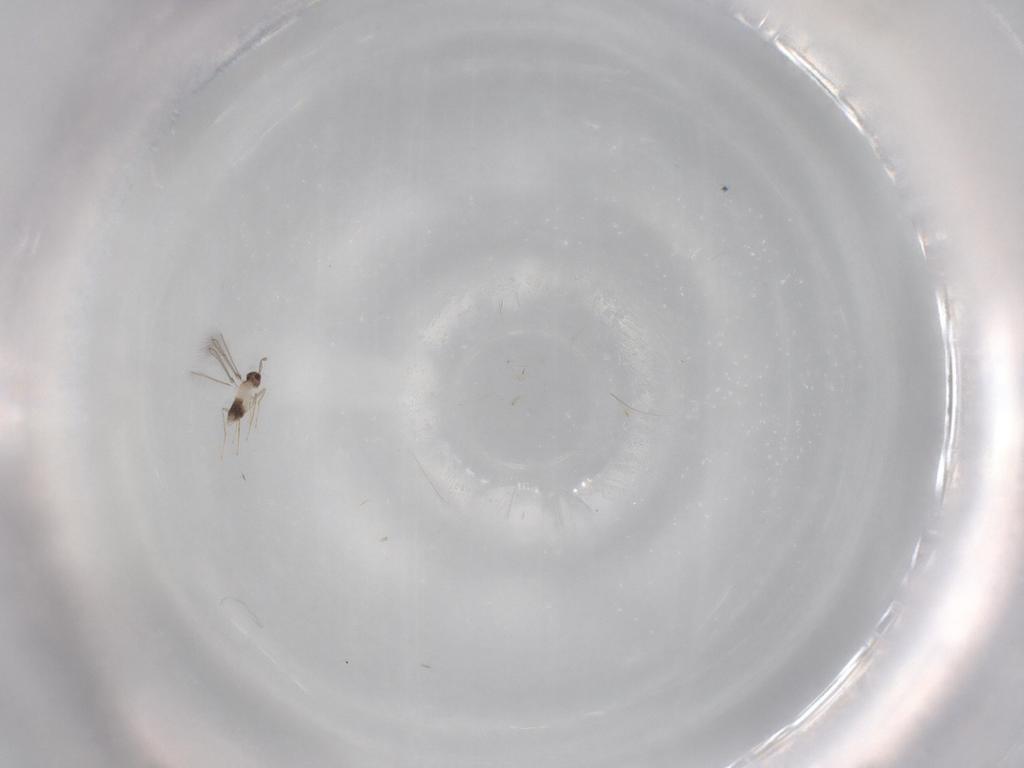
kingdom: Animalia
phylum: Arthropoda
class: Insecta
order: Hymenoptera
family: Mymaridae
